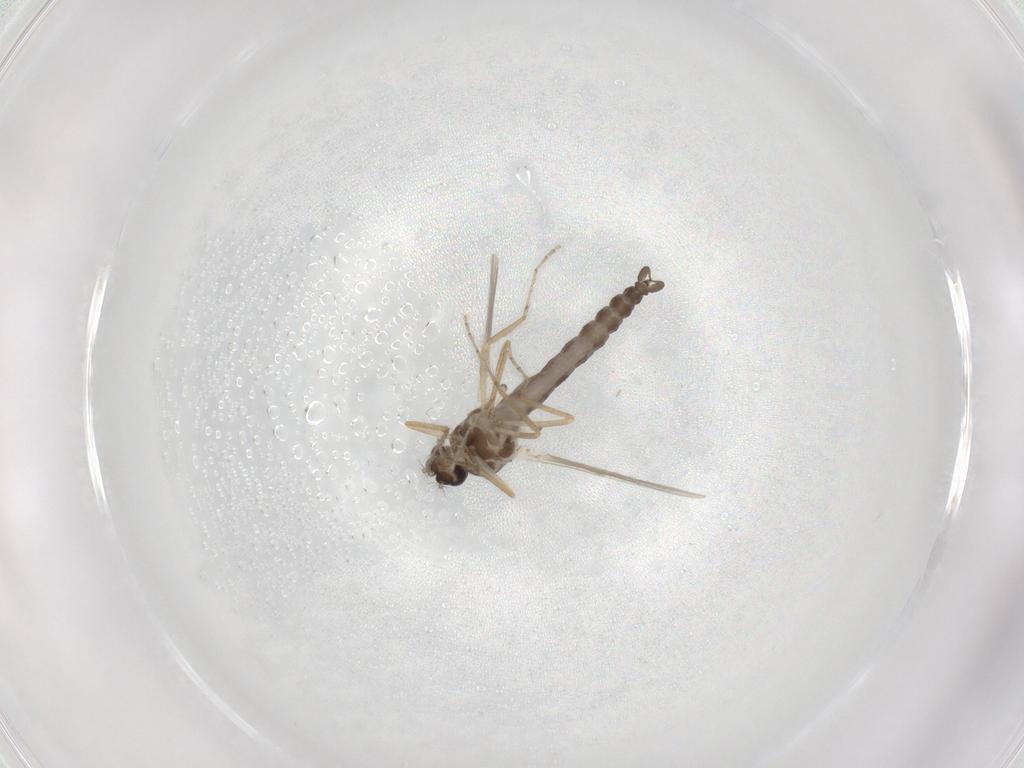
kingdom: Animalia
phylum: Arthropoda
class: Insecta
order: Diptera
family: Ceratopogonidae
